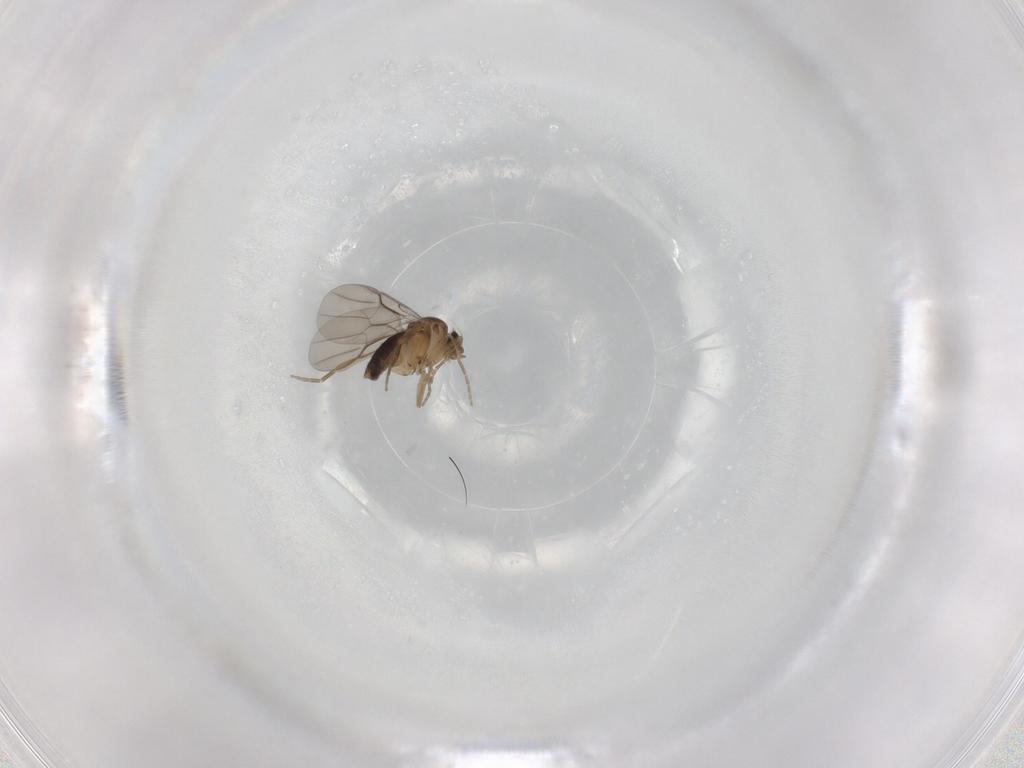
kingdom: Animalia
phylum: Arthropoda
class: Insecta
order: Diptera
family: Phoridae
